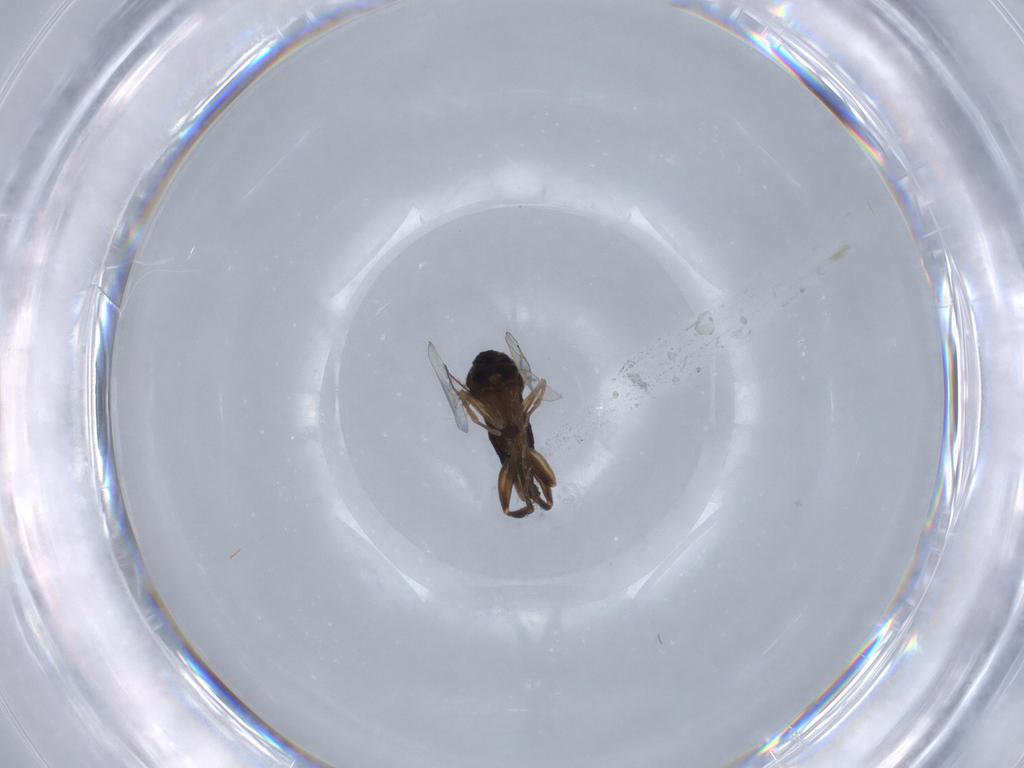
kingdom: Animalia
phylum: Arthropoda
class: Insecta
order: Diptera
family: Phoridae
